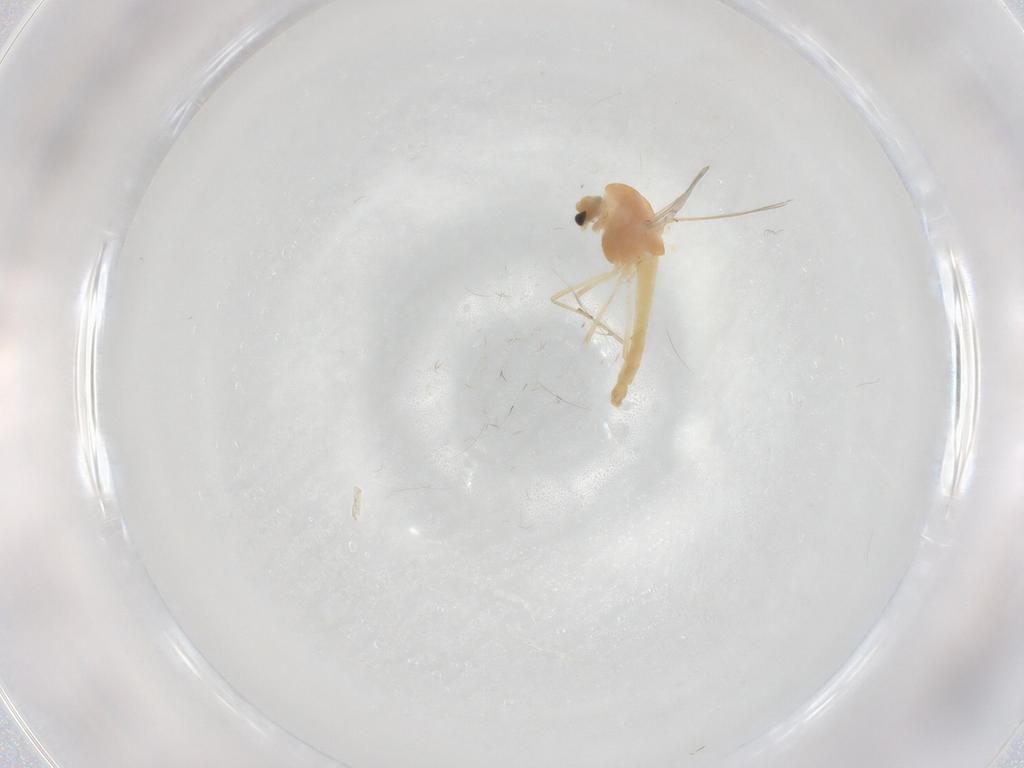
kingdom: Animalia
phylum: Arthropoda
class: Insecta
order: Diptera
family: Chironomidae
